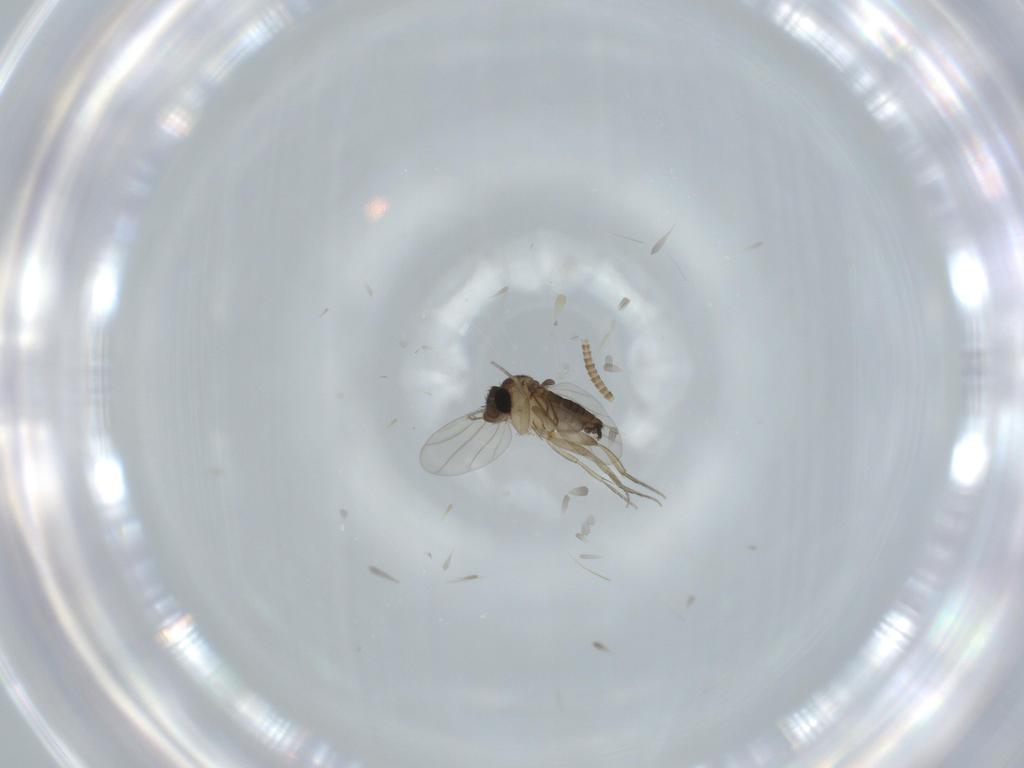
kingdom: Animalia
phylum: Arthropoda
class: Insecta
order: Diptera
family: Phoridae
